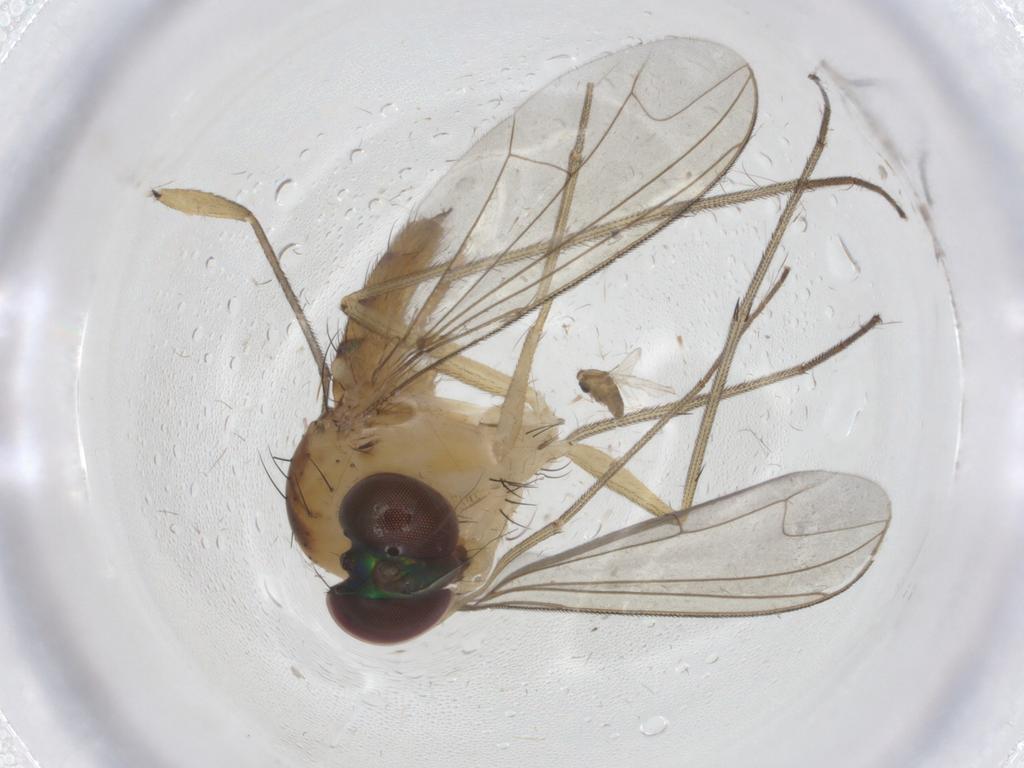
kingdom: Animalia
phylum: Arthropoda
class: Insecta
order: Diptera
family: Dolichopodidae
